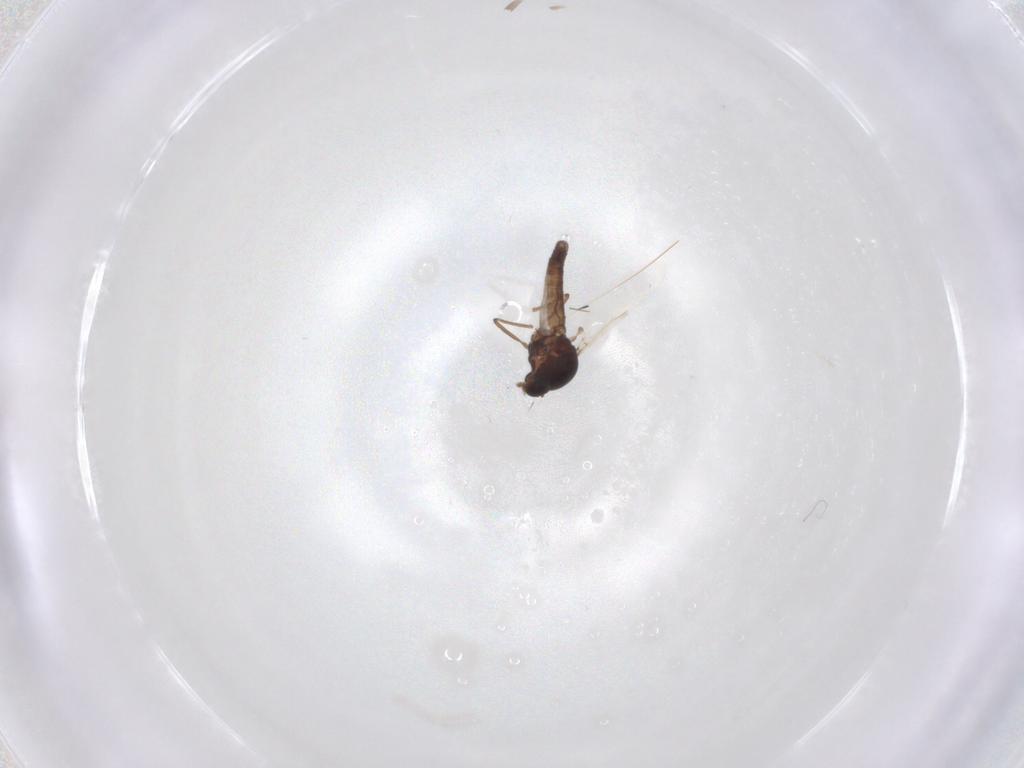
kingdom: Animalia
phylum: Arthropoda
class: Insecta
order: Diptera
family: Ceratopogonidae
